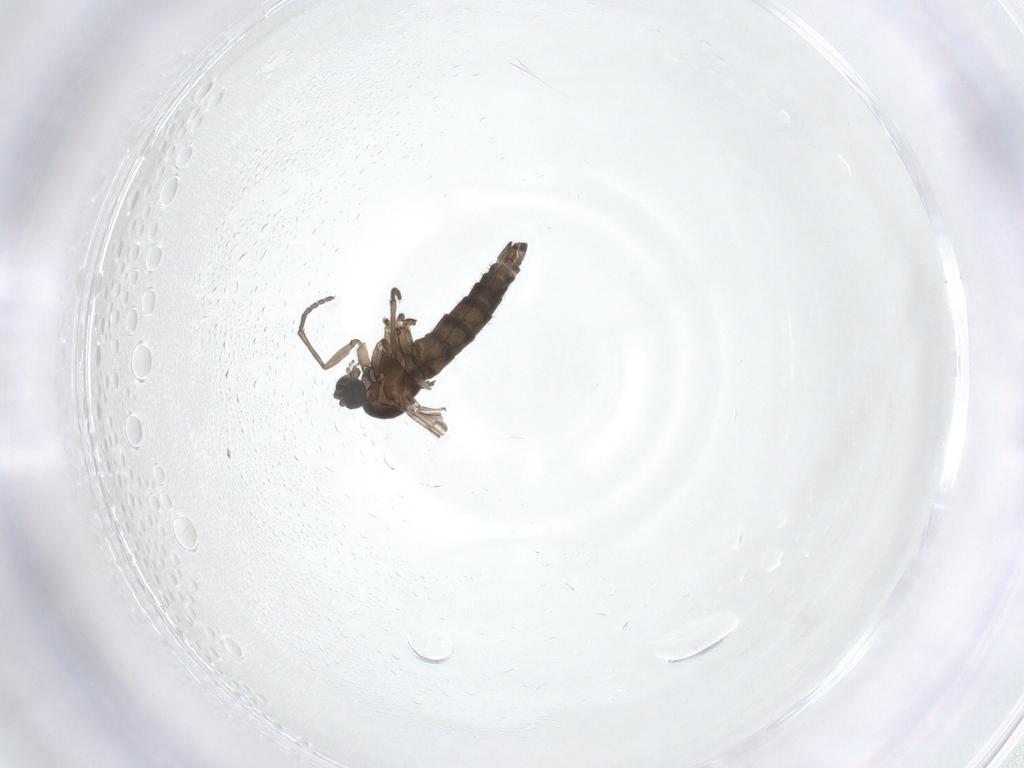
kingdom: Animalia
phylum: Arthropoda
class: Insecta
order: Diptera
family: Sciaridae
